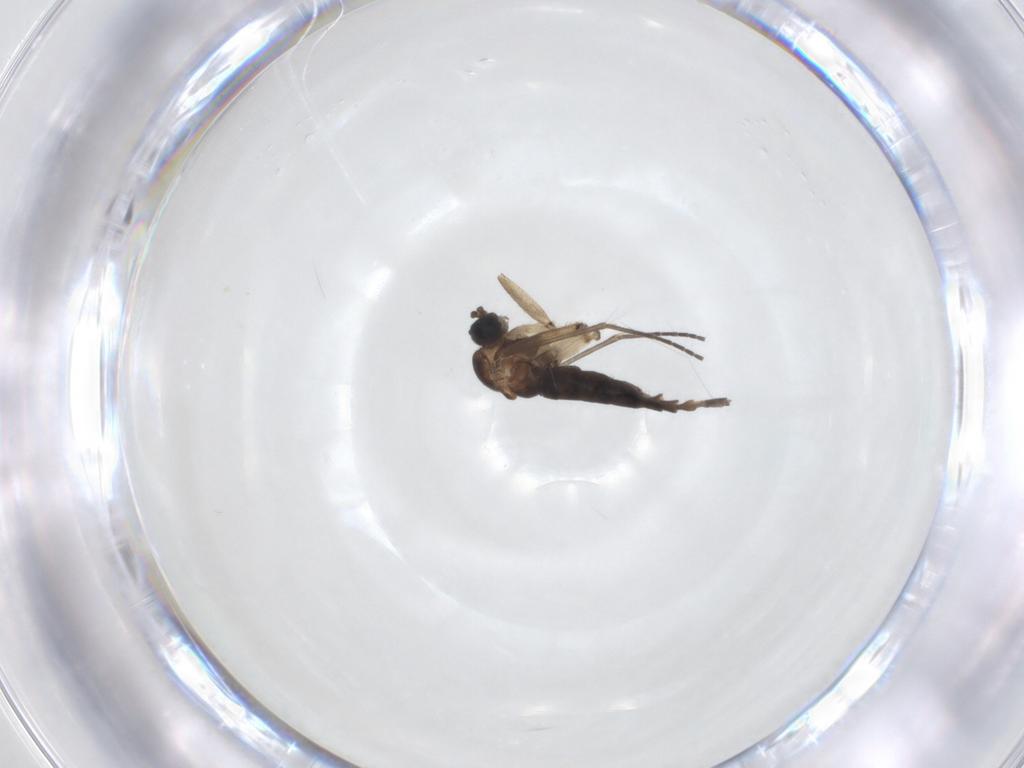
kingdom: Animalia
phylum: Arthropoda
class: Insecta
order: Diptera
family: Sciaridae
